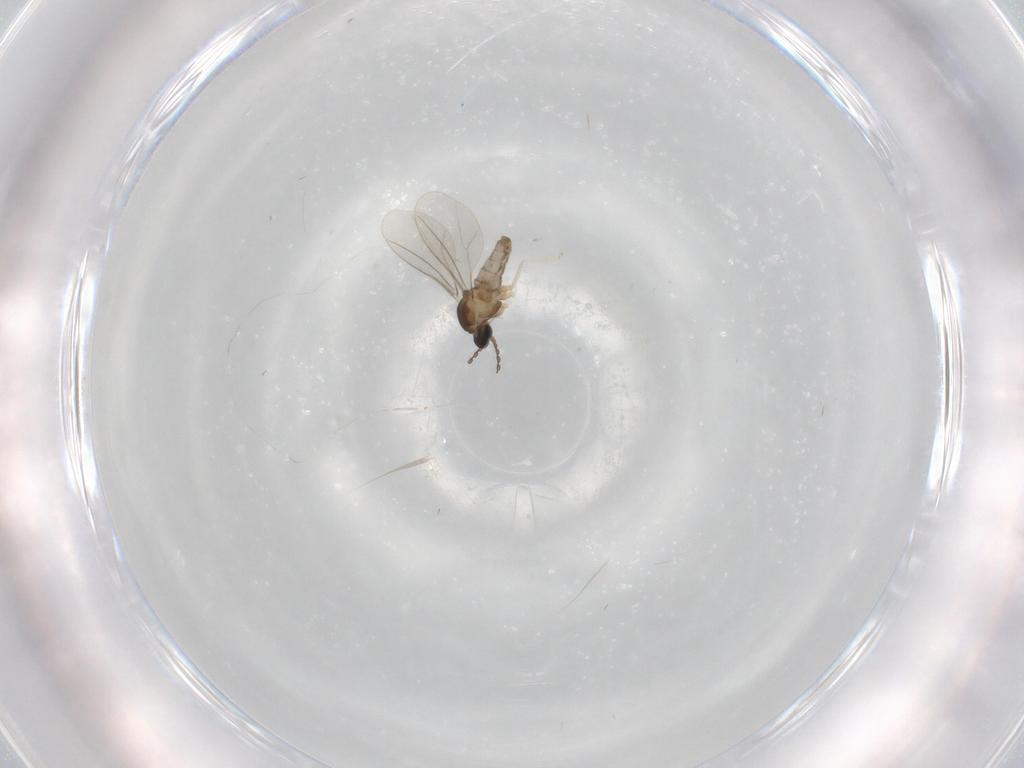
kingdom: Animalia
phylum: Arthropoda
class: Insecta
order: Diptera
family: Cecidomyiidae
